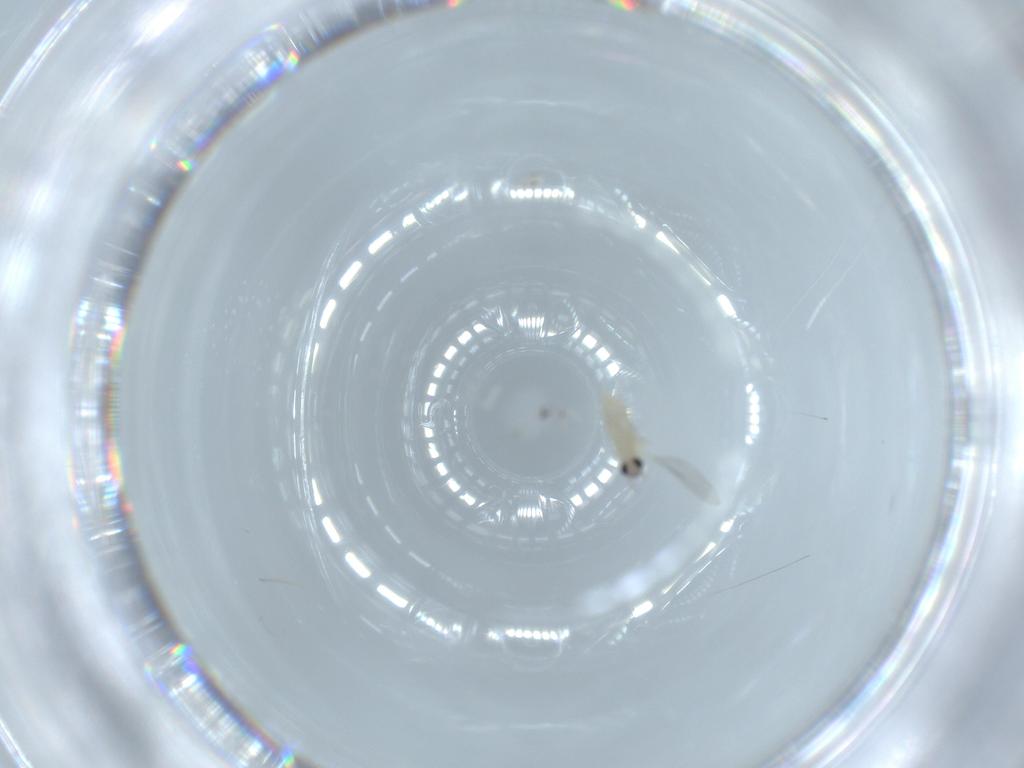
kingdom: Animalia
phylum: Arthropoda
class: Insecta
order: Diptera
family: Cecidomyiidae
